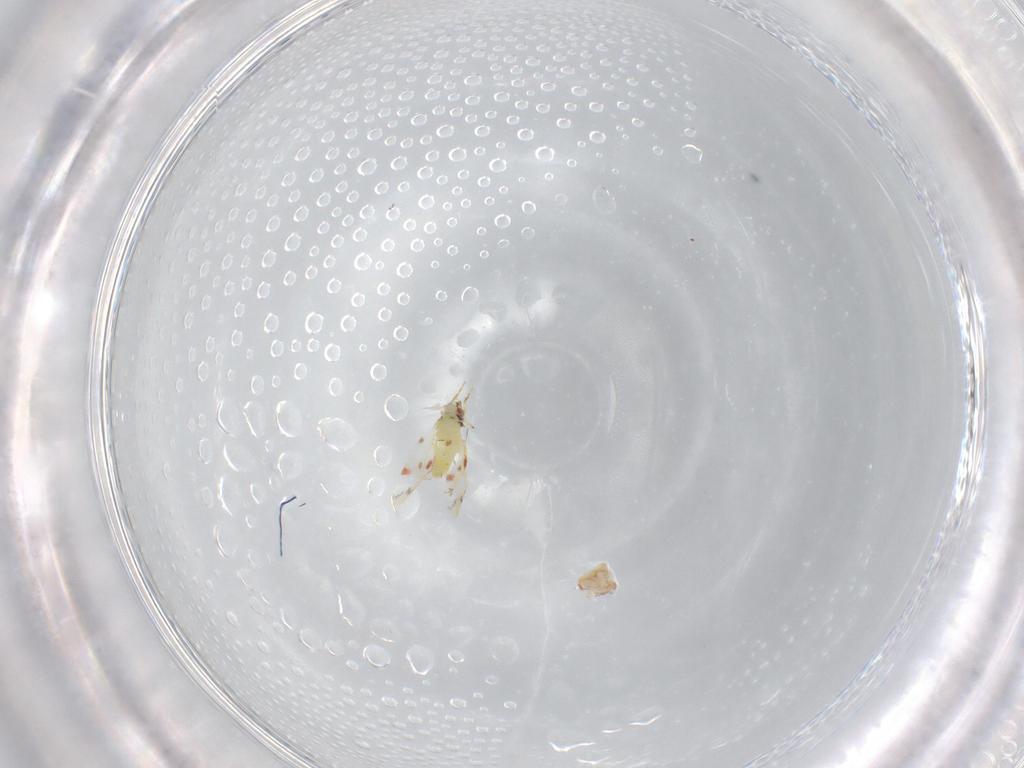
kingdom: Animalia
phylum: Arthropoda
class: Insecta
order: Hemiptera
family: Aleyrodidae
